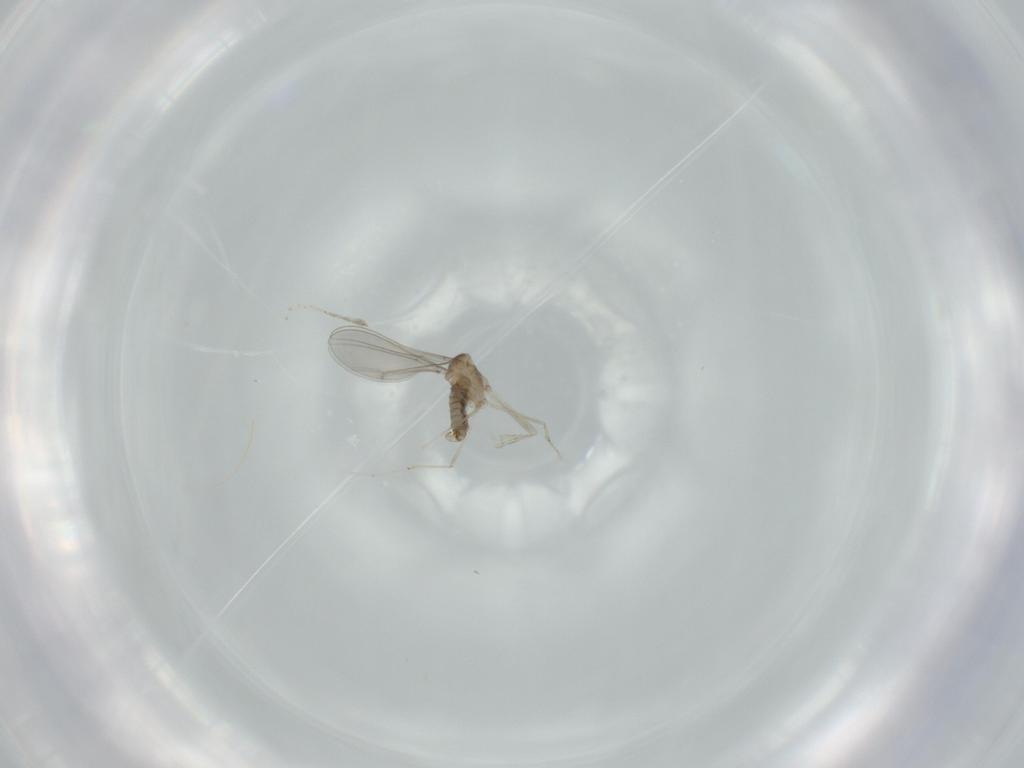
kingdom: Animalia
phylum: Arthropoda
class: Insecta
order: Diptera
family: Cecidomyiidae
